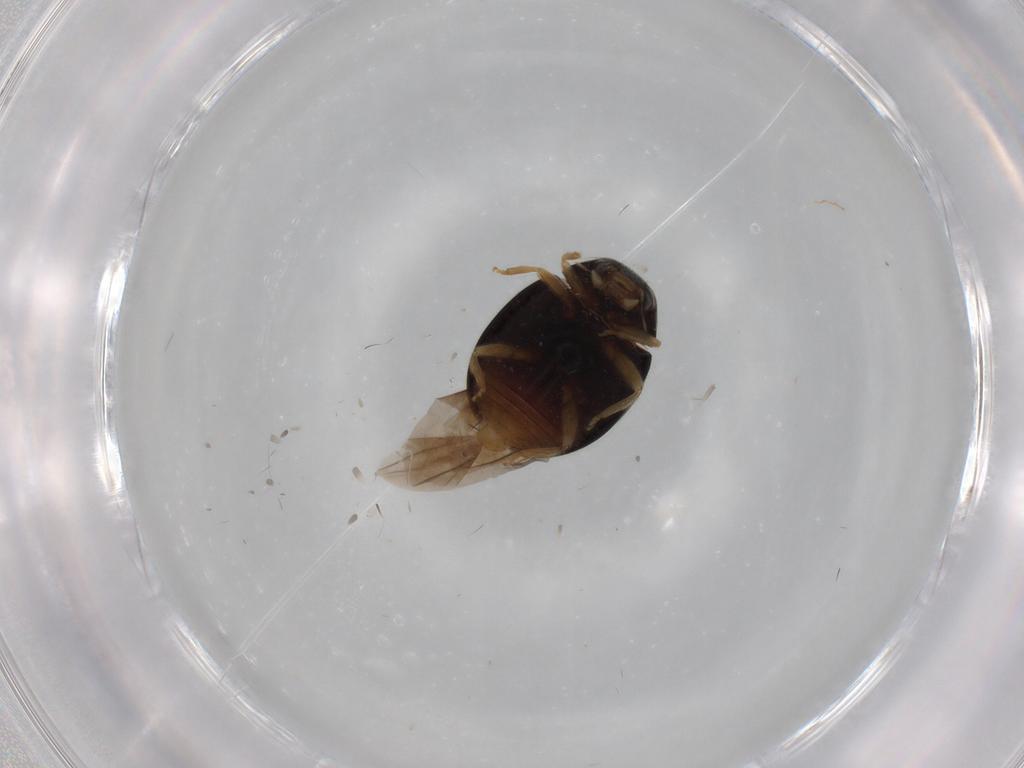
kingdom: Animalia
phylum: Arthropoda
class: Insecta
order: Coleoptera
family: Coccinellidae
